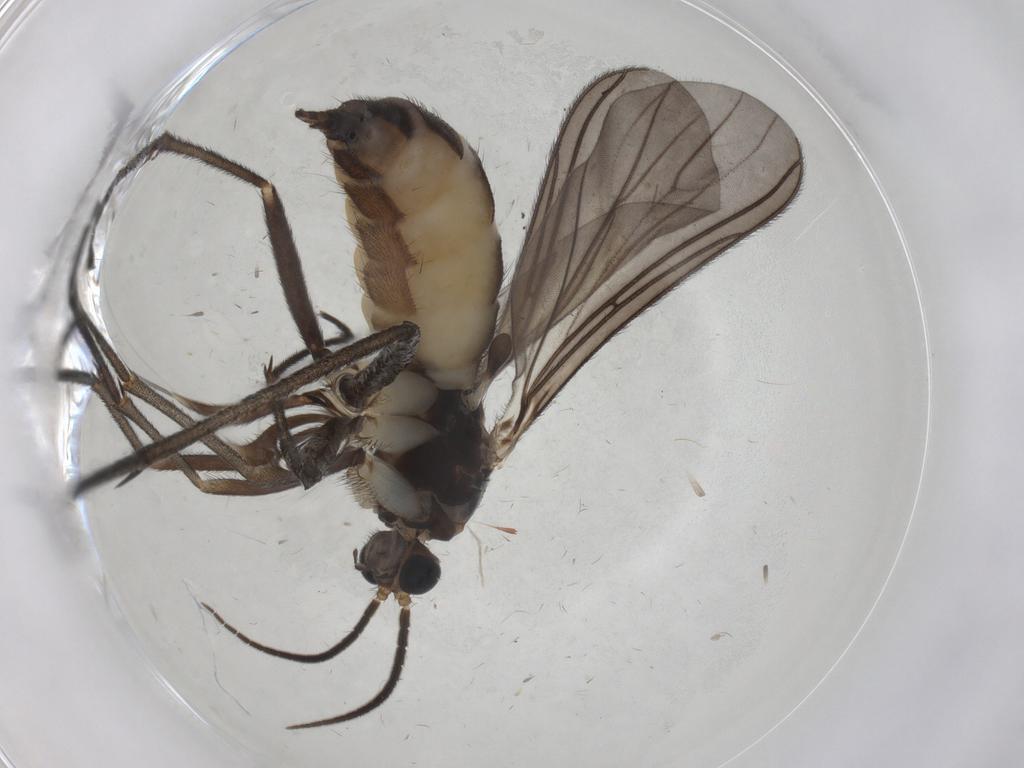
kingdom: Animalia
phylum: Arthropoda
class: Insecta
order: Diptera
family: Sciaridae
